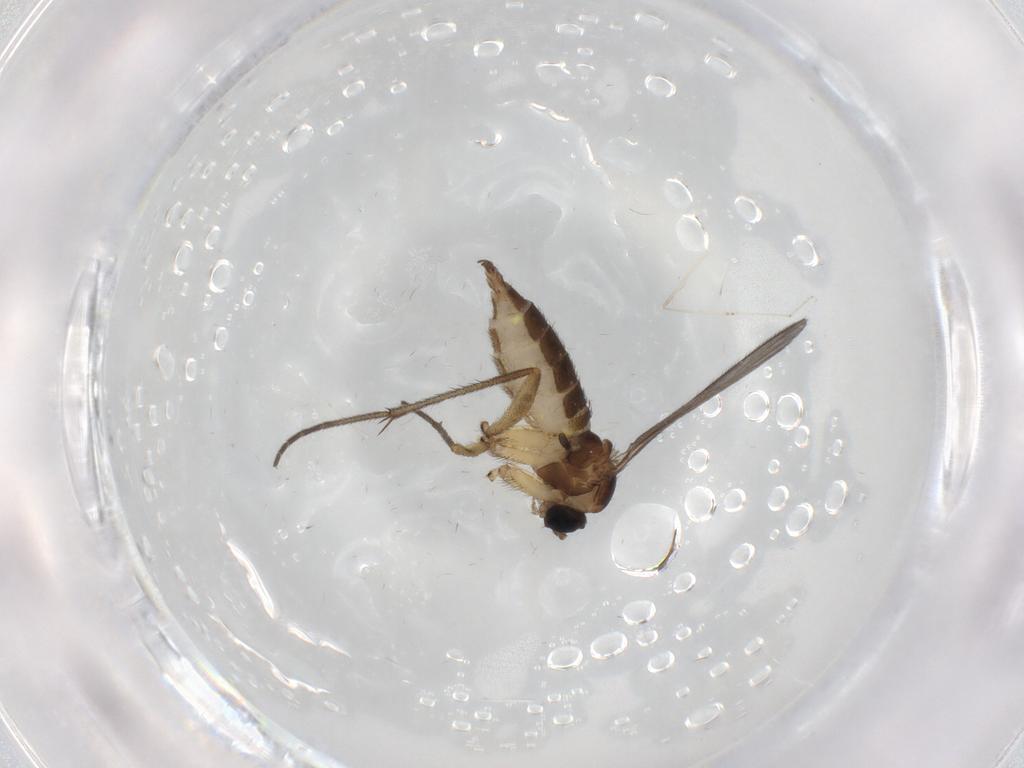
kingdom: Animalia
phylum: Arthropoda
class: Insecta
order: Diptera
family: Dolichopodidae
